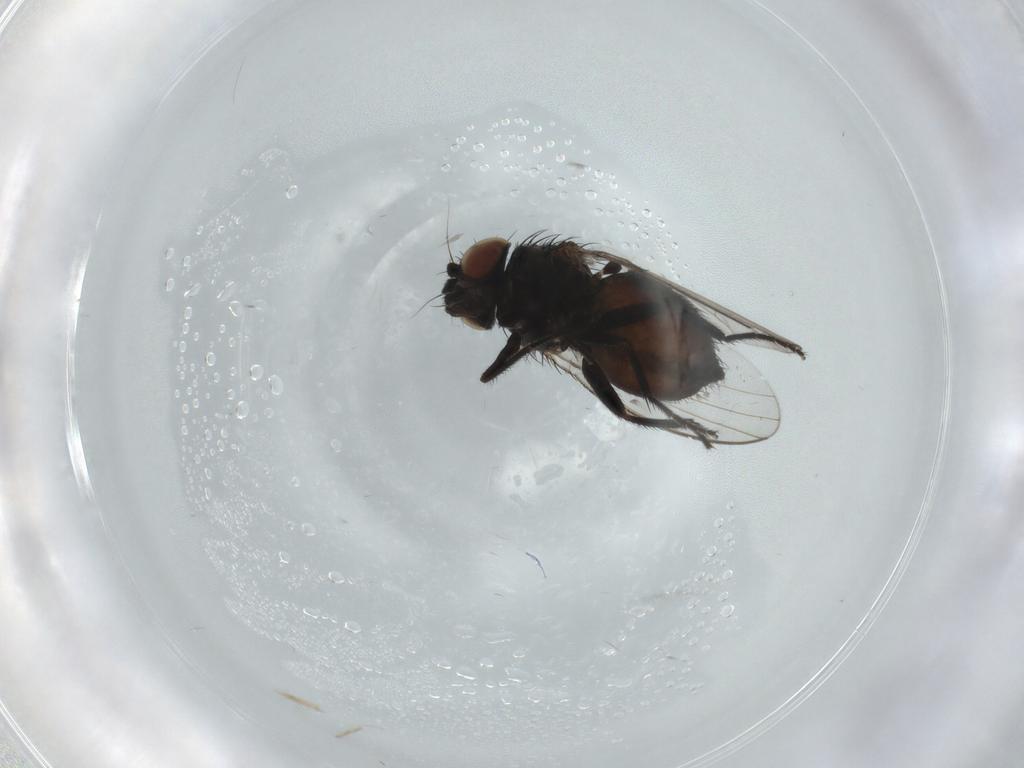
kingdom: Animalia
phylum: Arthropoda
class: Insecta
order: Diptera
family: Milichiidae
